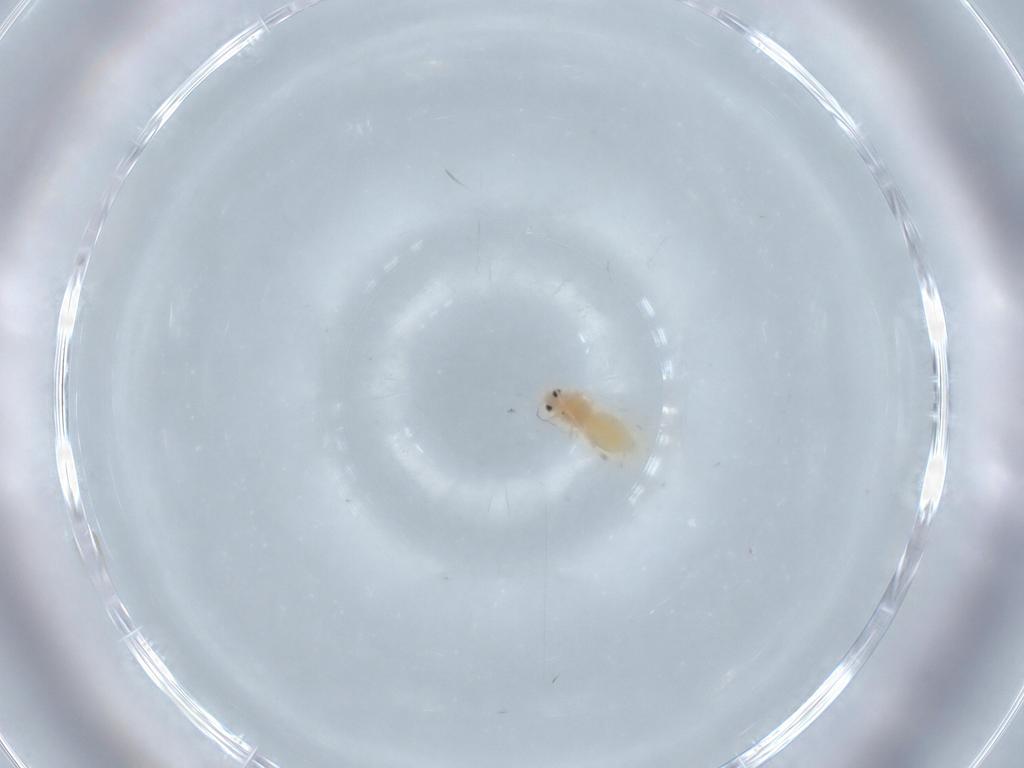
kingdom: Animalia
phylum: Arthropoda
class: Insecta
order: Hemiptera
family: Aleyrodidae
